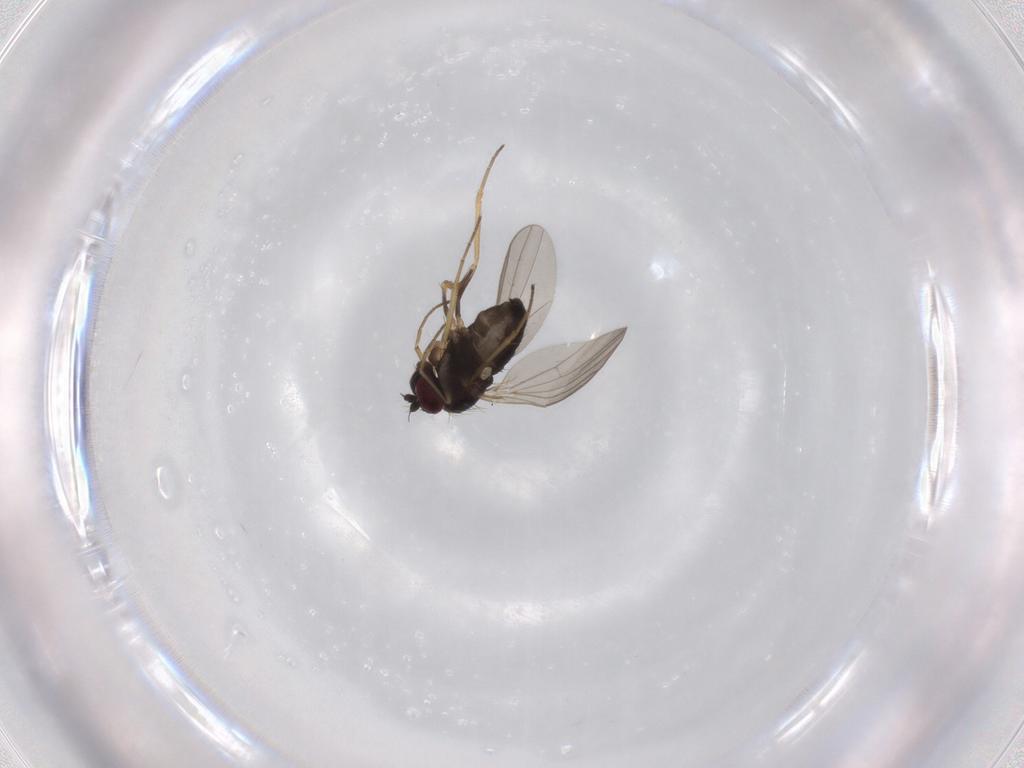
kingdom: Animalia
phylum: Arthropoda
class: Insecta
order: Diptera
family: Dolichopodidae
